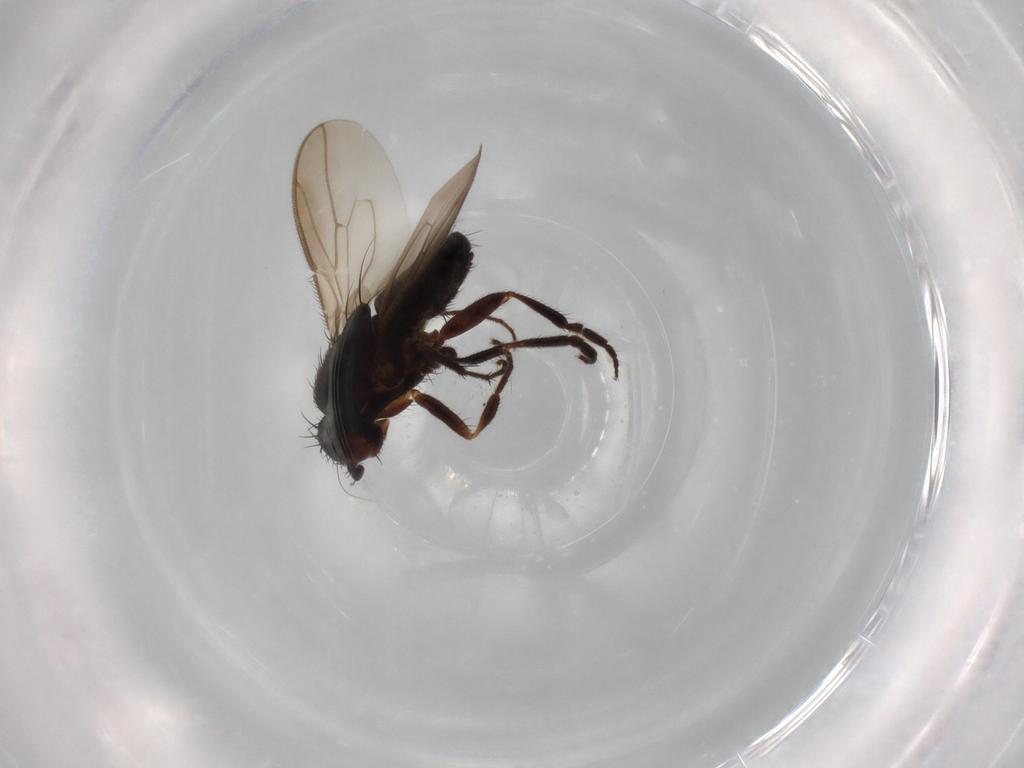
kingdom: Animalia
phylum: Arthropoda
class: Insecta
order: Diptera
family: Sphaeroceridae
